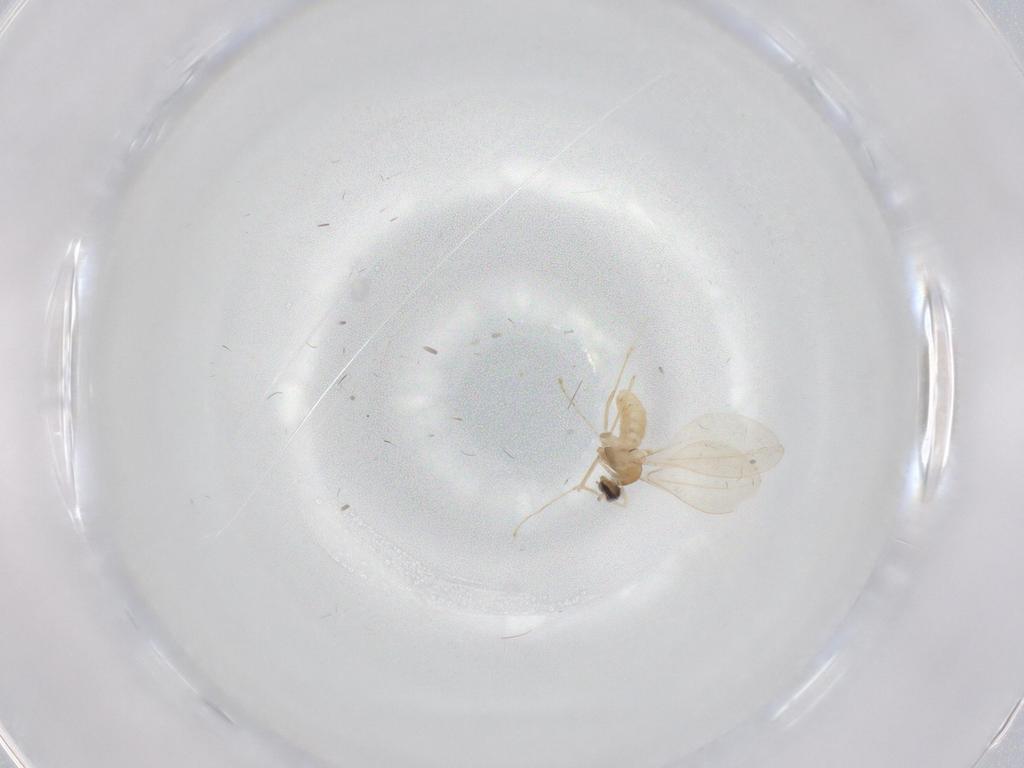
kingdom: Animalia
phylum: Arthropoda
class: Insecta
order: Diptera
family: Cecidomyiidae
